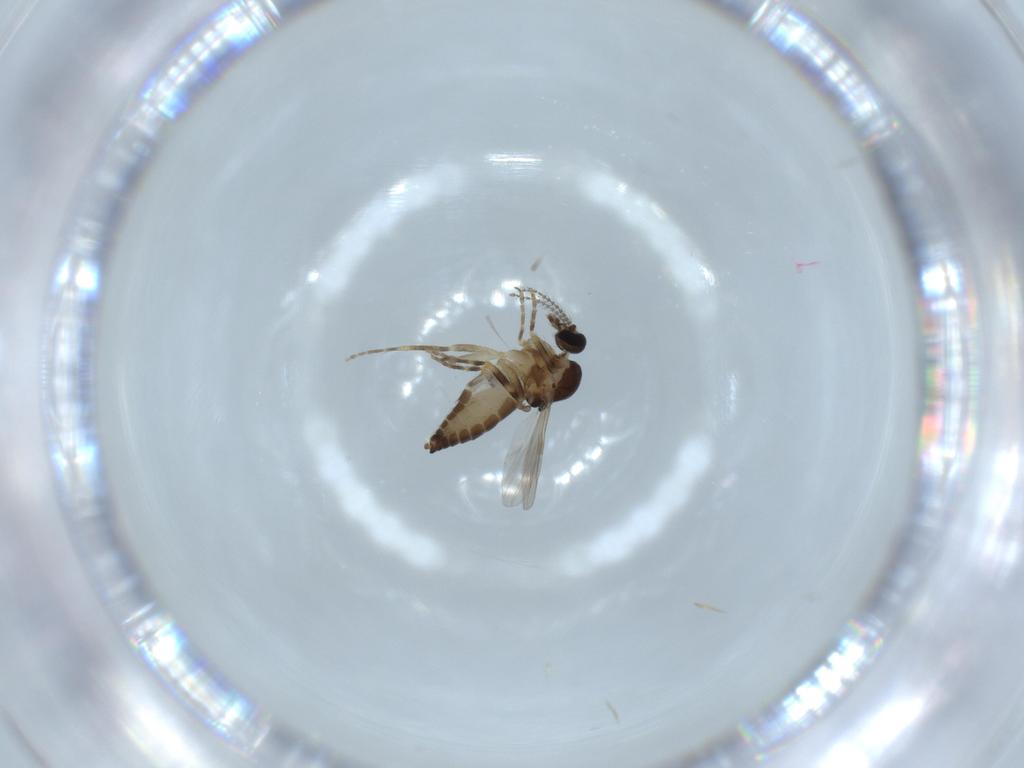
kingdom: Animalia
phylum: Arthropoda
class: Insecta
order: Diptera
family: Ceratopogonidae
